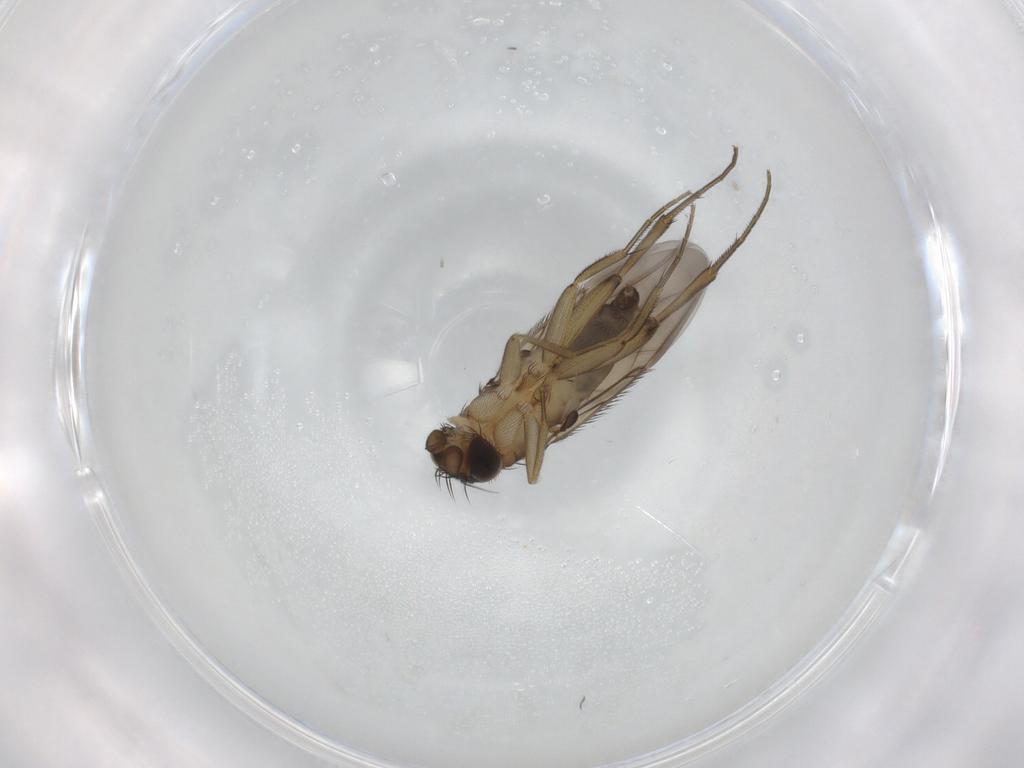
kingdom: Animalia
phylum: Arthropoda
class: Insecta
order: Diptera
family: Phoridae
